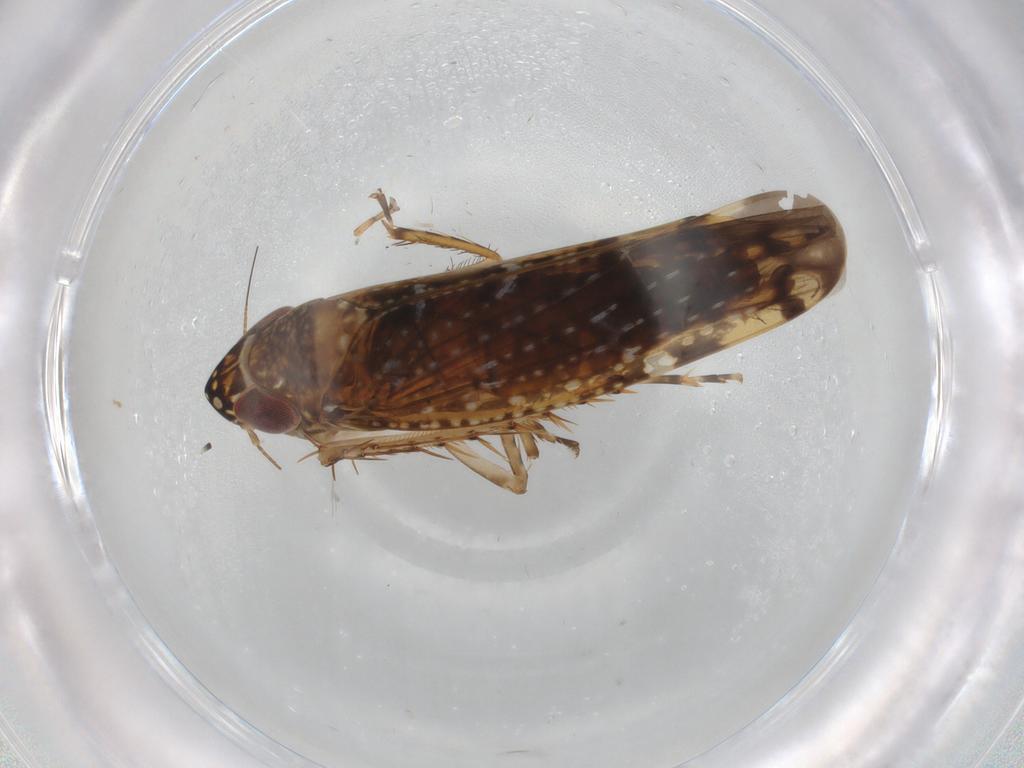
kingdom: Animalia
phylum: Arthropoda
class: Insecta
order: Hemiptera
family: Cicadellidae
